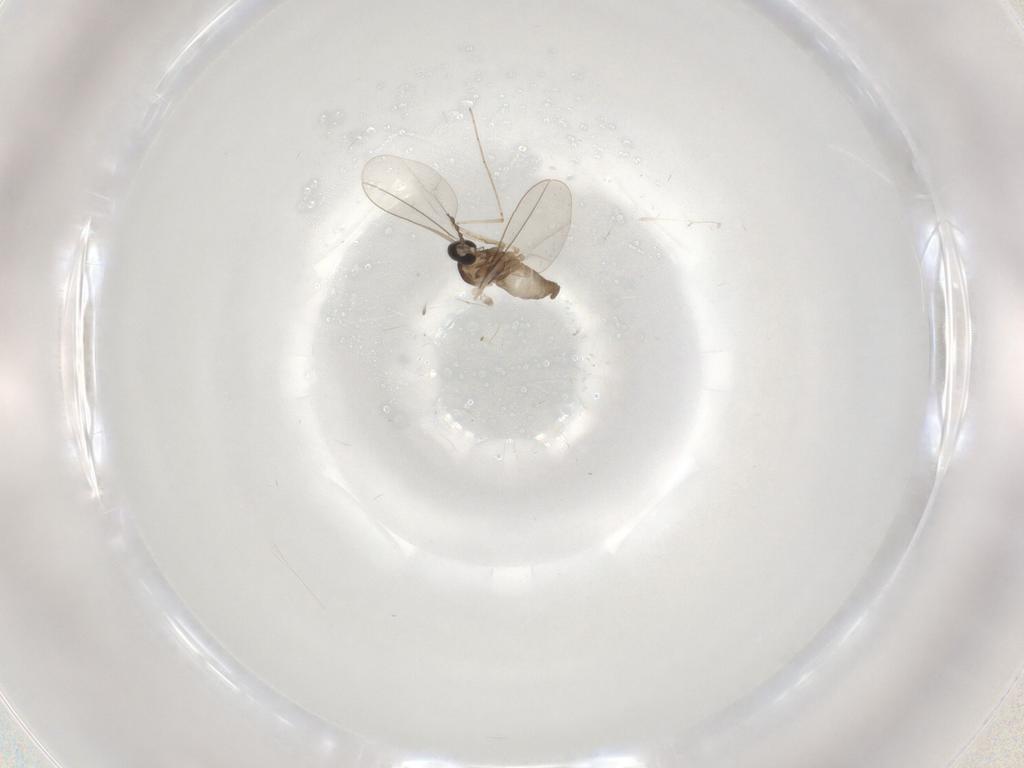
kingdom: Animalia
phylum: Arthropoda
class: Insecta
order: Diptera
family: Cecidomyiidae
